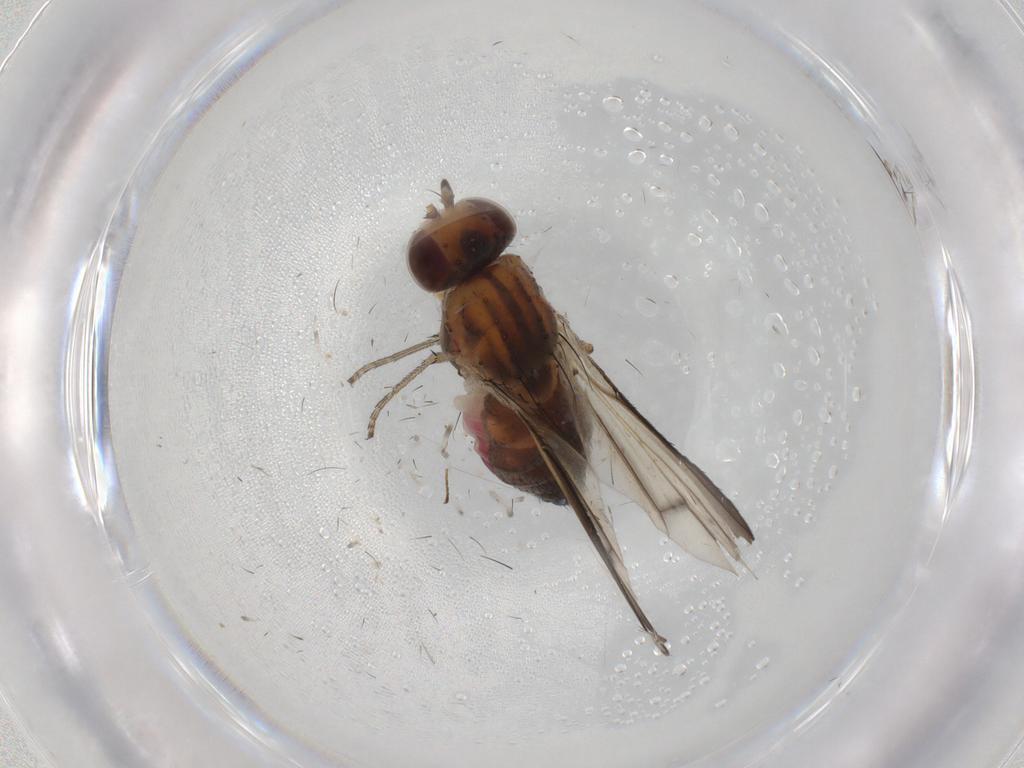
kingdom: Animalia
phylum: Arthropoda
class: Insecta
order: Diptera
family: Heleomyzidae
